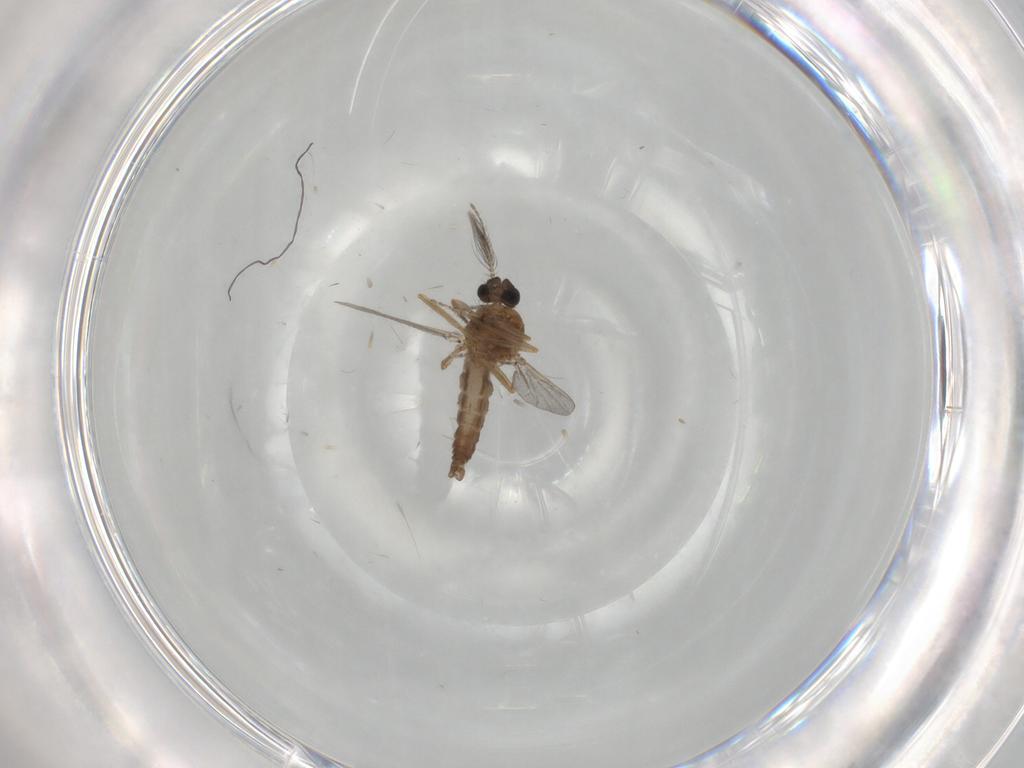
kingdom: Animalia
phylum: Arthropoda
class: Insecta
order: Diptera
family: Ceratopogonidae
